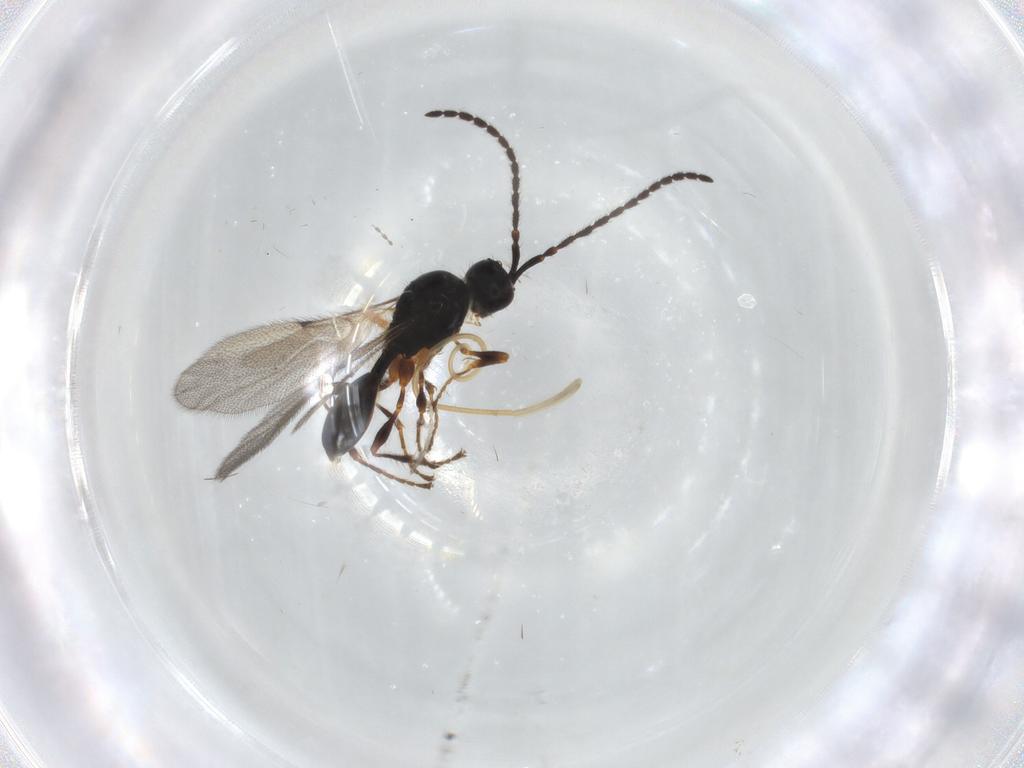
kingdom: Animalia
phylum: Arthropoda
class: Insecta
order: Hymenoptera
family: Diapriidae
